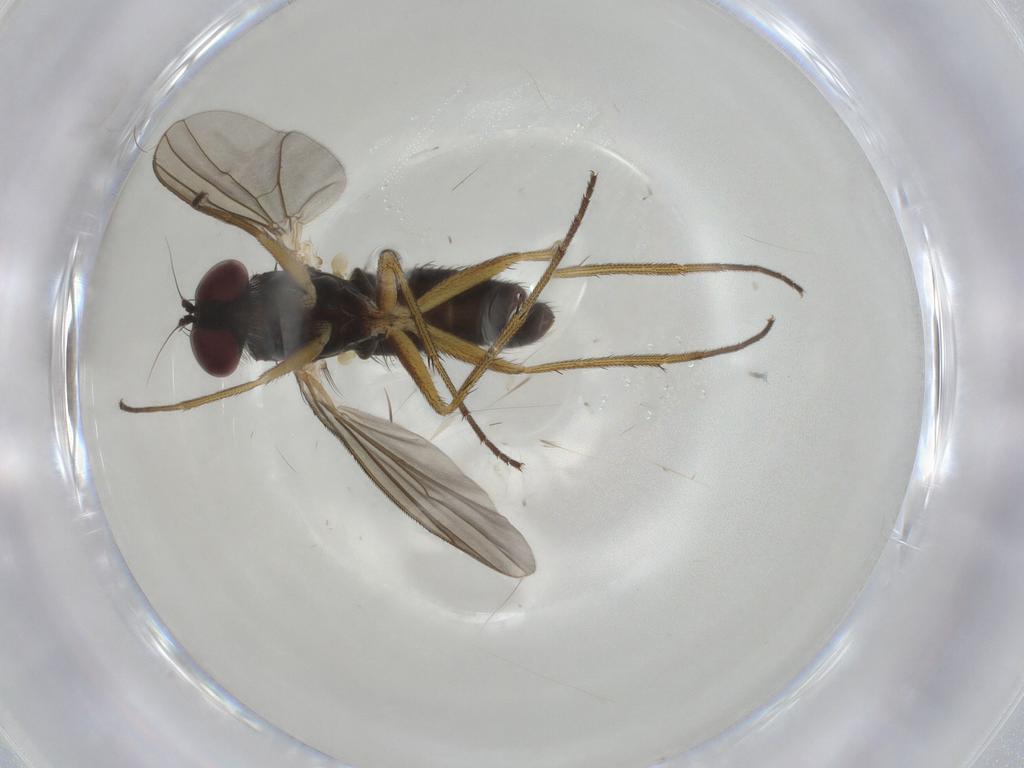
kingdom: Animalia
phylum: Arthropoda
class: Insecta
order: Diptera
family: Dolichopodidae
